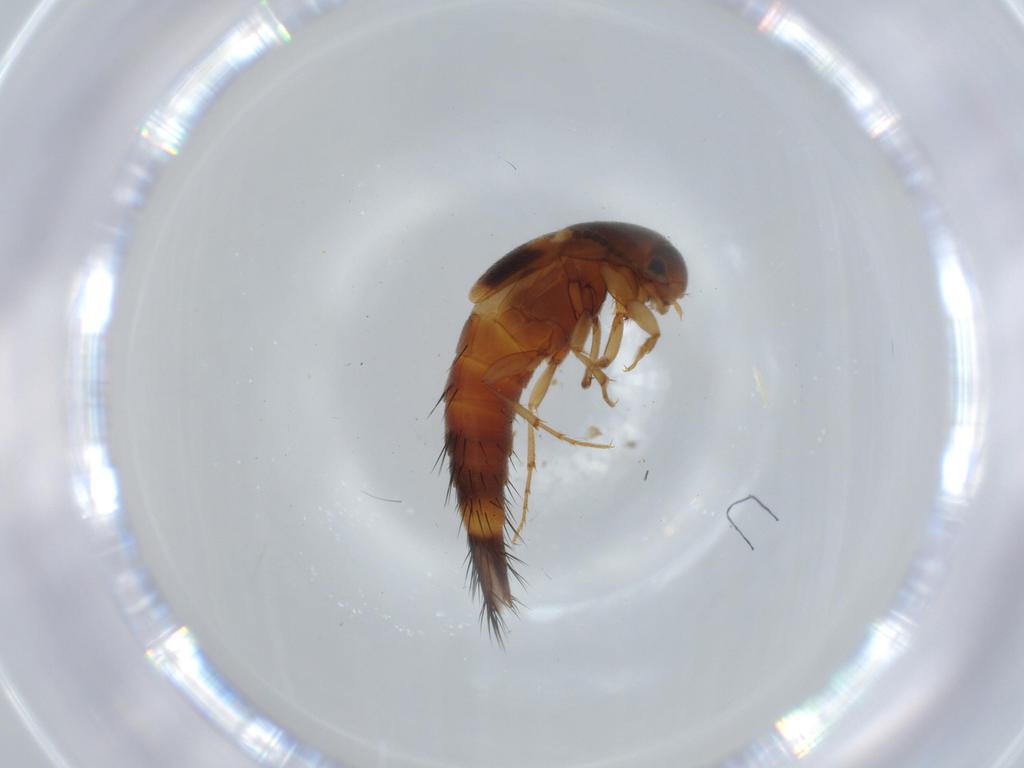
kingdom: Animalia
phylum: Arthropoda
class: Insecta
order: Coleoptera
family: Staphylinidae
